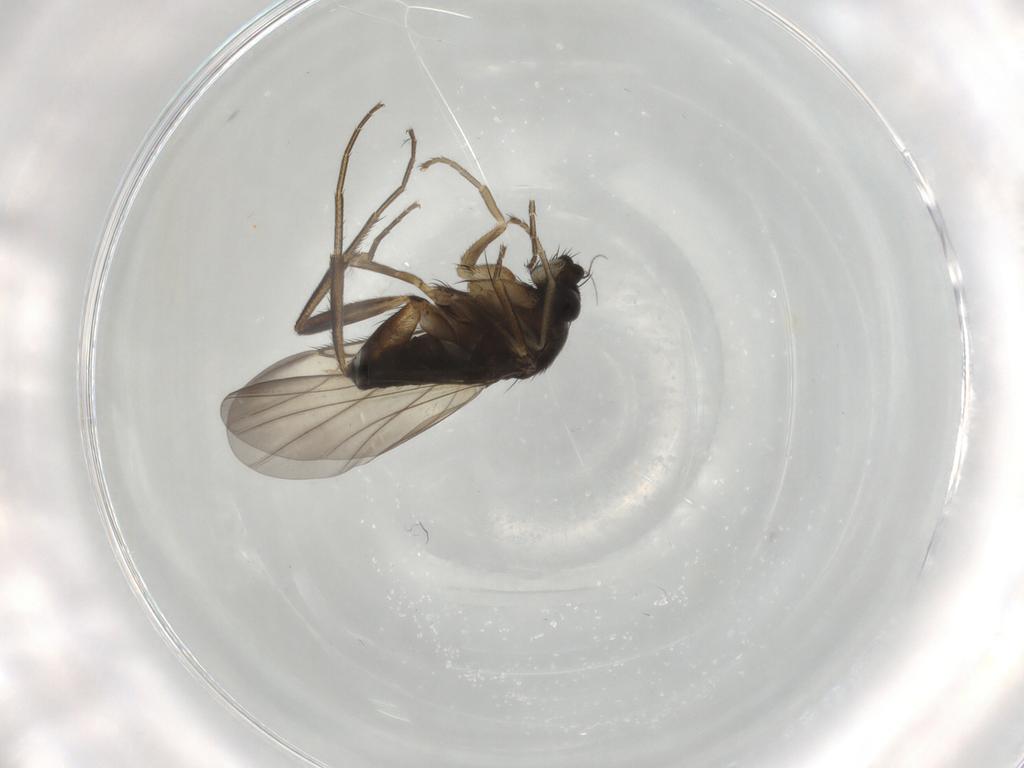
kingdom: Animalia
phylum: Arthropoda
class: Insecta
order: Diptera
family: Phoridae
